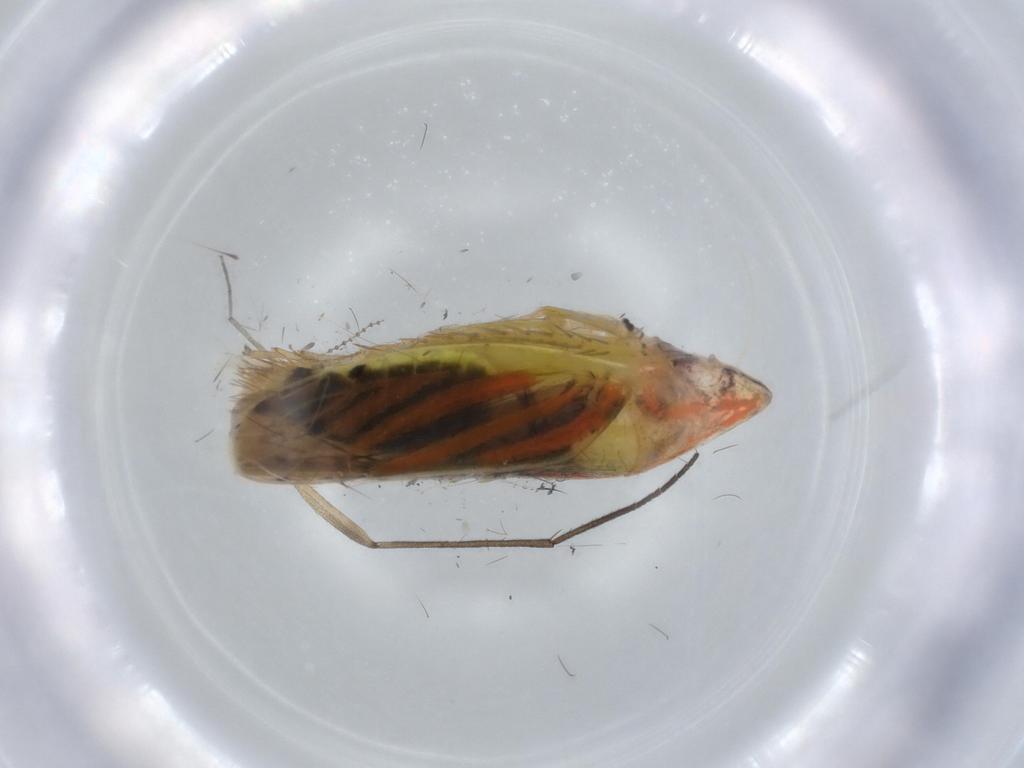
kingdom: Animalia
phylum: Arthropoda
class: Insecta
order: Hemiptera
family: Cicadellidae
